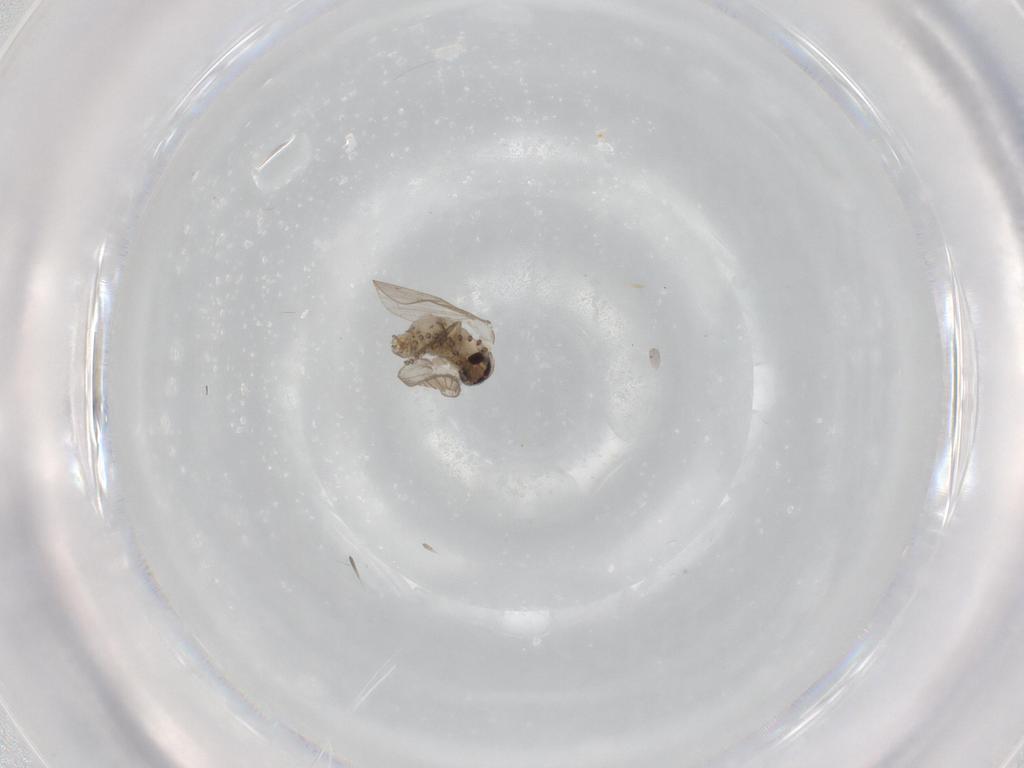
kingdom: Animalia
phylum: Arthropoda
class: Insecta
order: Diptera
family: Psychodidae
